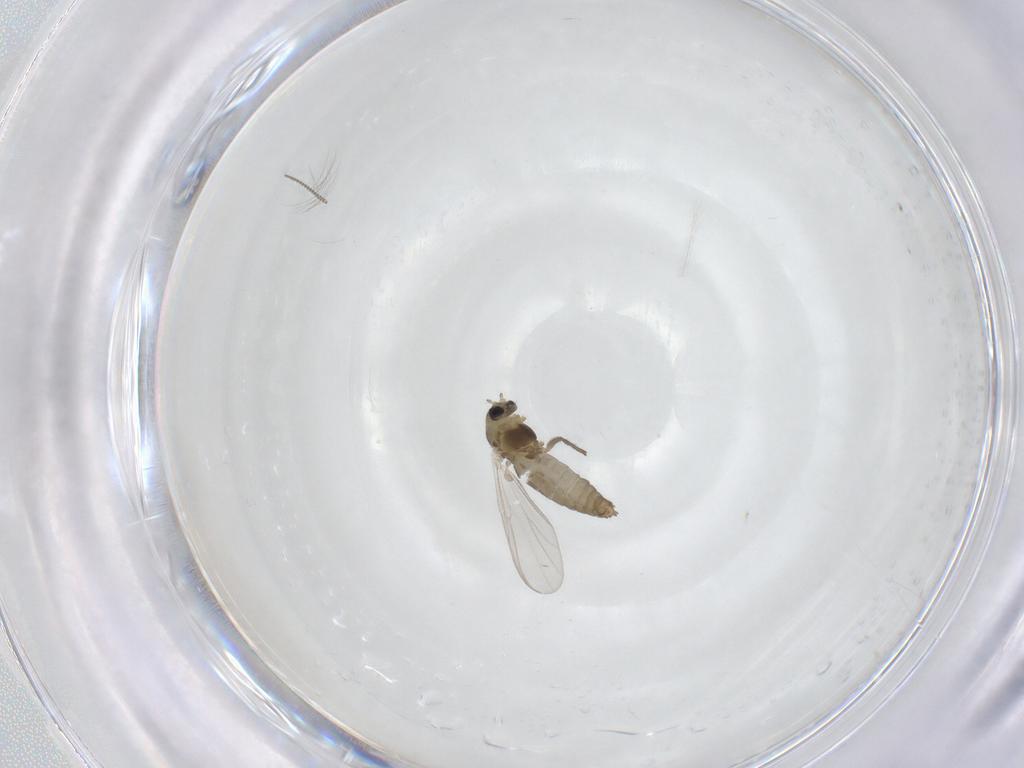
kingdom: Animalia
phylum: Arthropoda
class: Insecta
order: Diptera
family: Chironomidae
